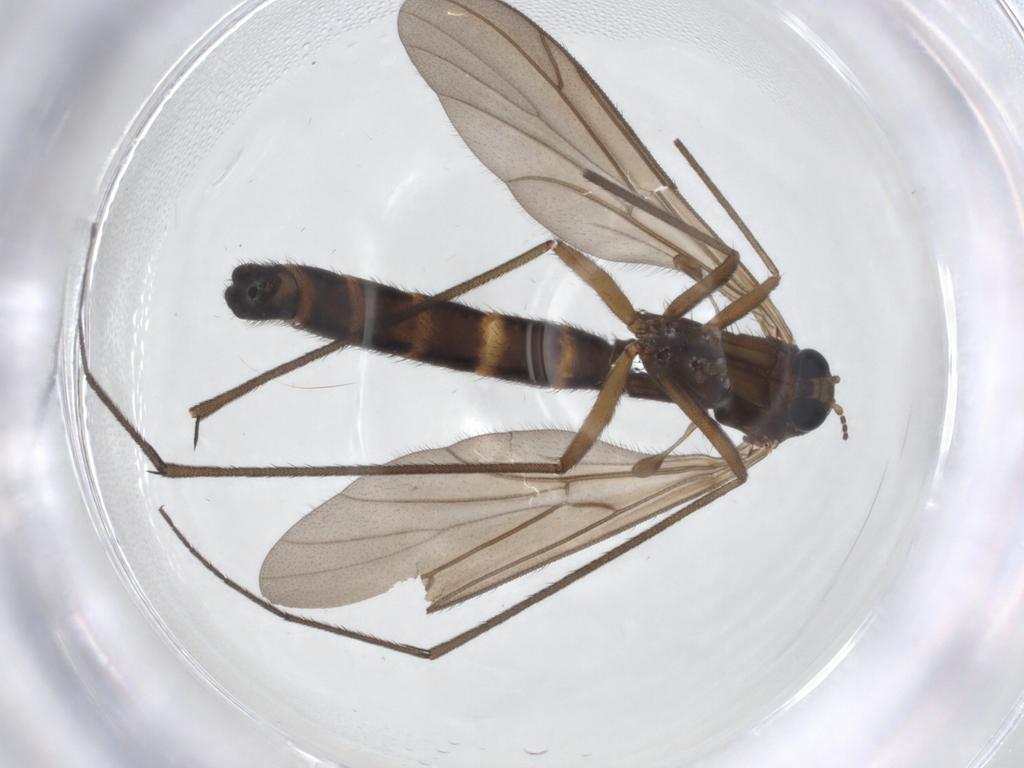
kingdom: Animalia
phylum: Arthropoda
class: Insecta
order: Diptera
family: Ditomyiidae
